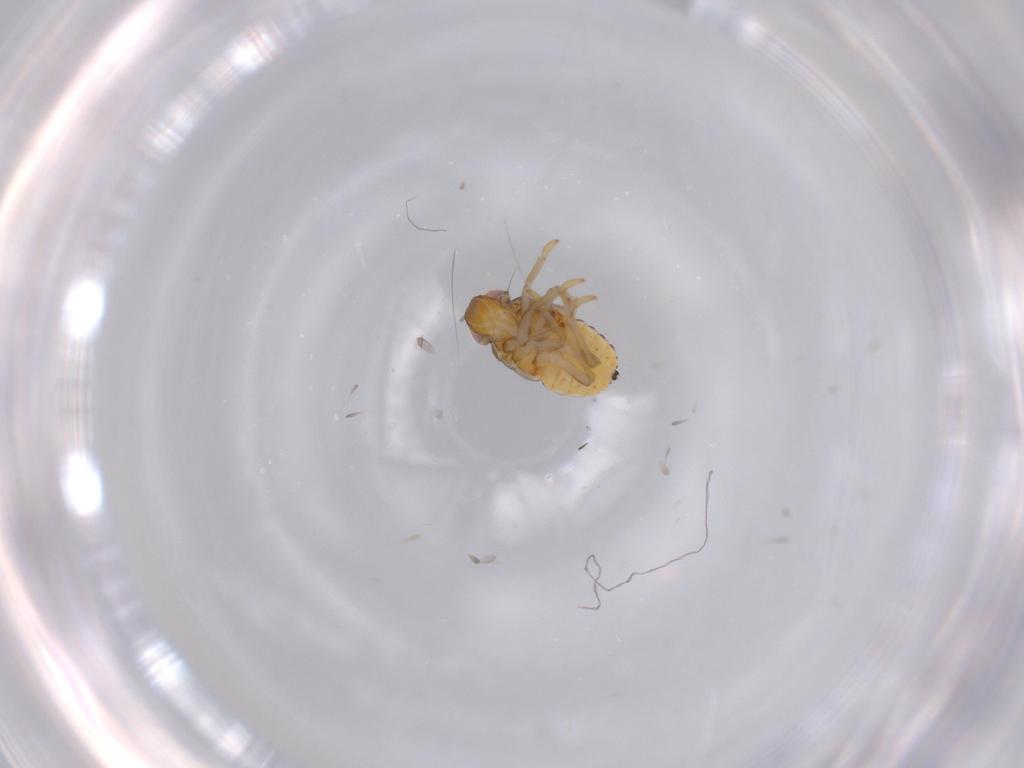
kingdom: Animalia
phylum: Arthropoda
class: Insecta
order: Hemiptera
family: Issidae
